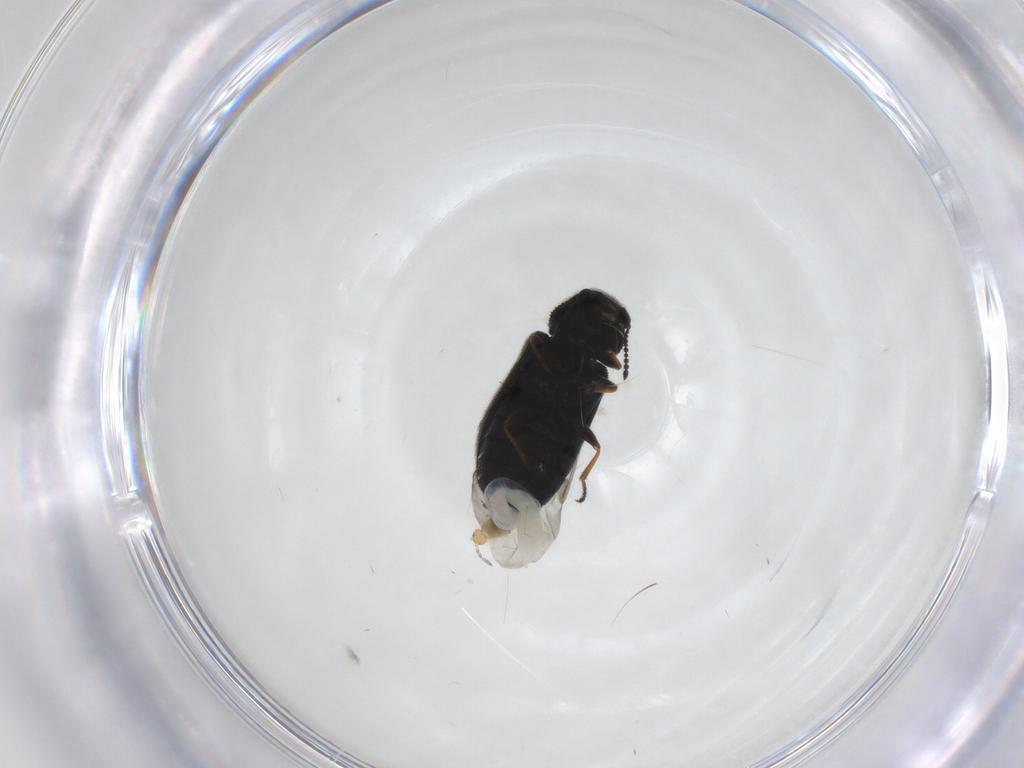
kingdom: Animalia
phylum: Arthropoda
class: Insecta
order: Coleoptera
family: Melyridae
